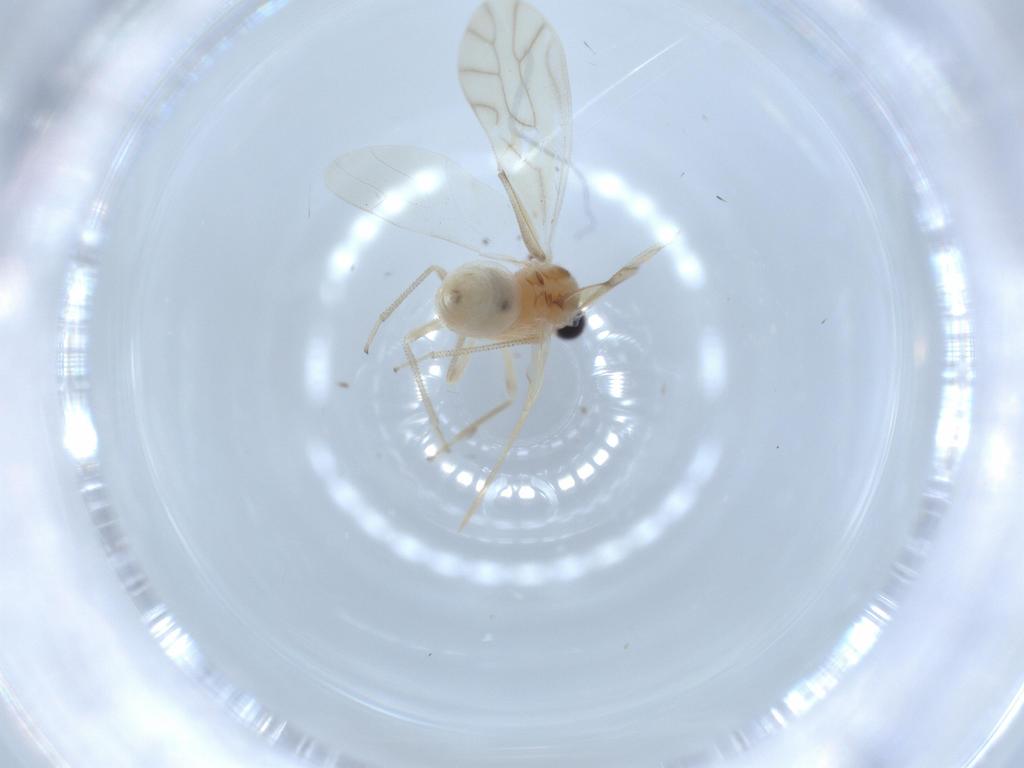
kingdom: Animalia
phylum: Arthropoda
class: Insecta
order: Psocodea
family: Caeciliusidae
